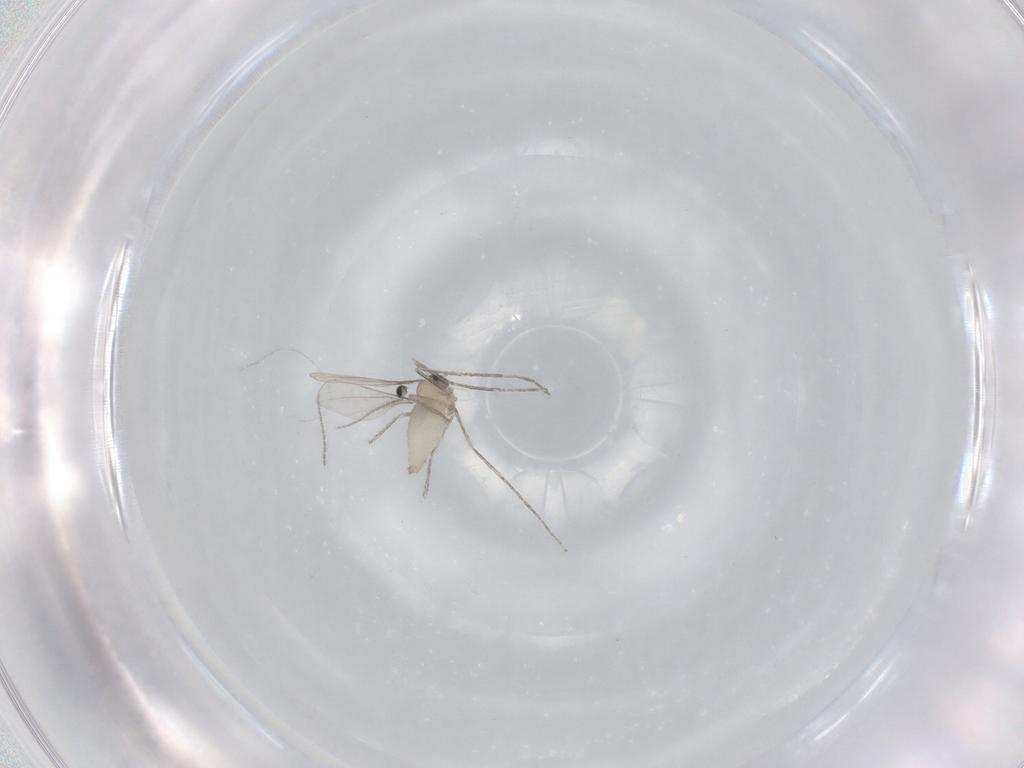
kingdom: Animalia
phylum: Arthropoda
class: Insecta
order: Diptera
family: Cecidomyiidae
